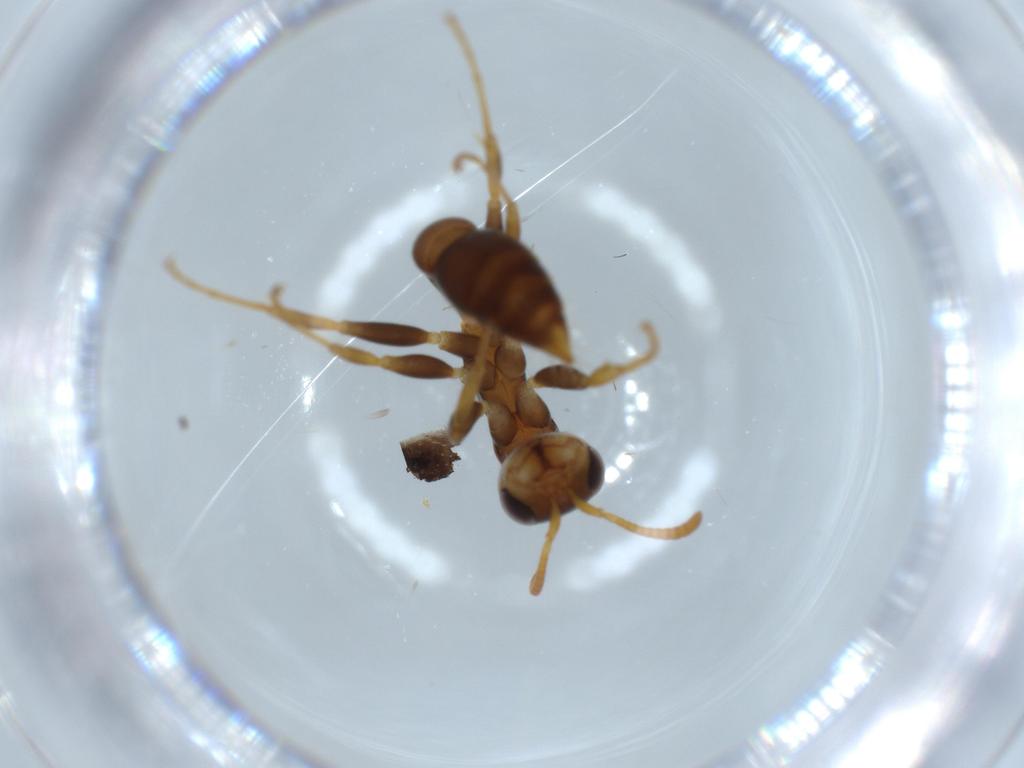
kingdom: Animalia
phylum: Arthropoda
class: Insecta
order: Hymenoptera
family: Formicidae
